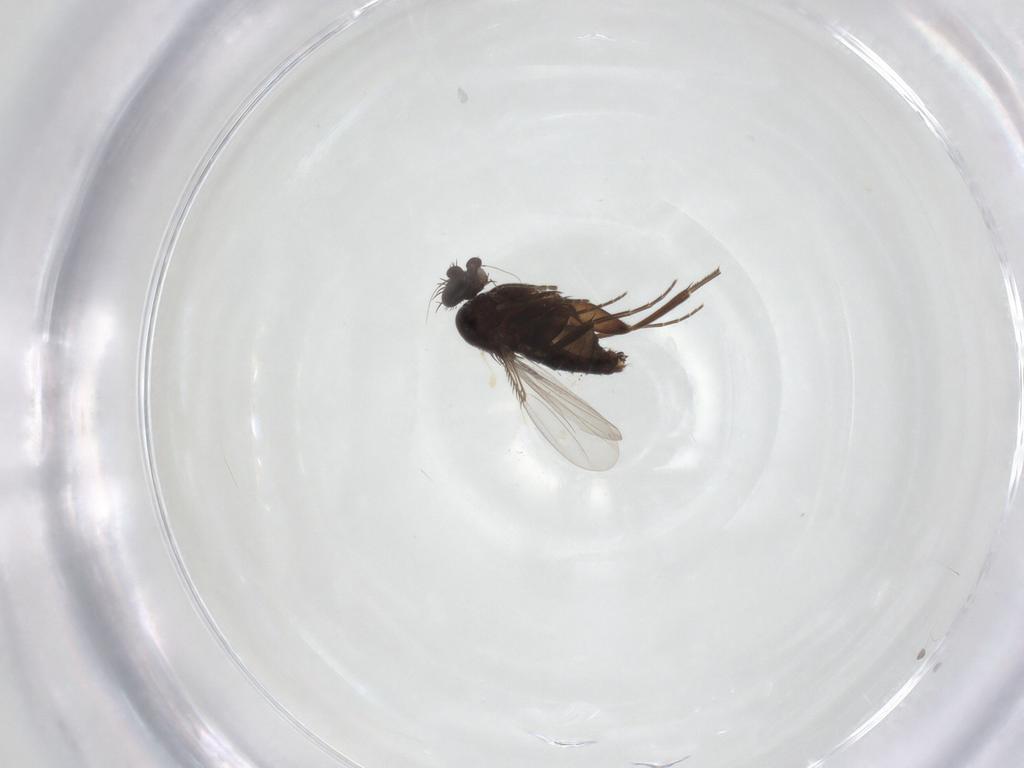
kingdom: Animalia
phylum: Arthropoda
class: Insecta
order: Diptera
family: Phoridae
